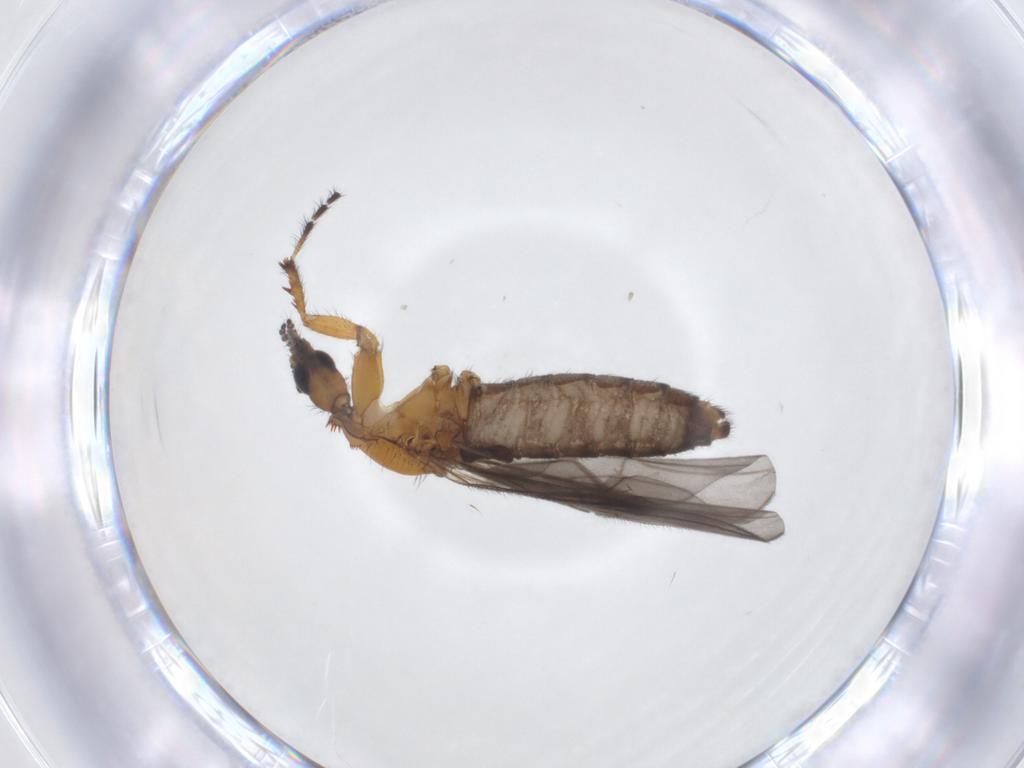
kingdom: Animalia
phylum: Arthropoda
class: Insecta
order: Diptera
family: Bibionidae
